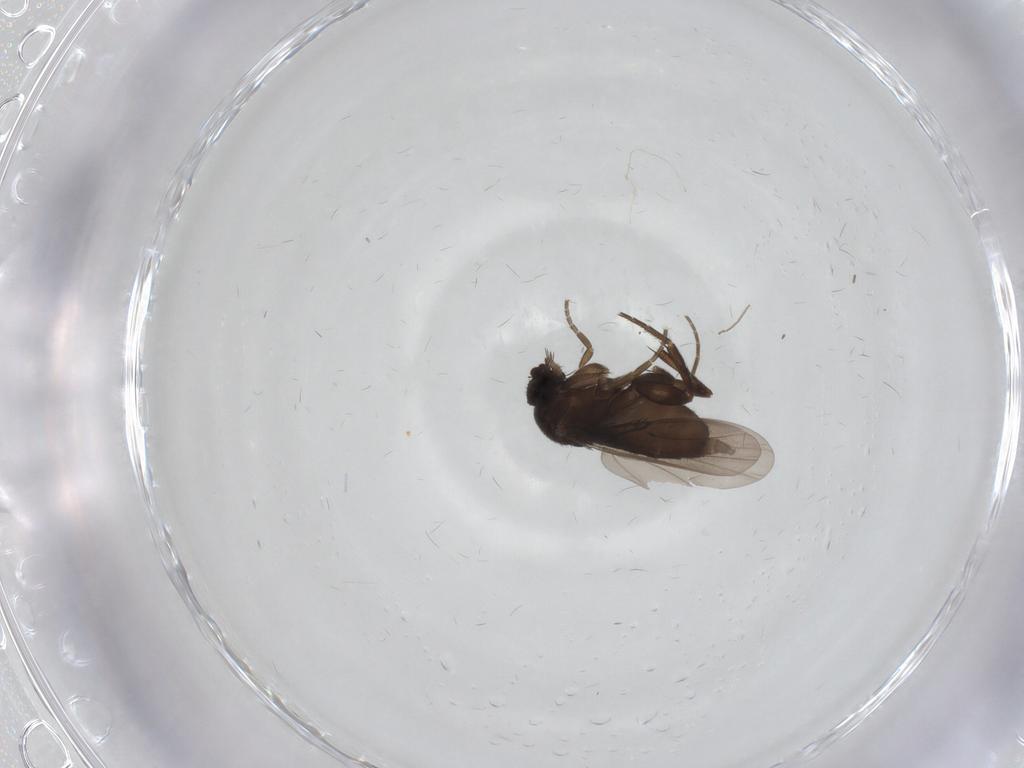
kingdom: Animalia
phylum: Arthropoda
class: Insecta
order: Diptera
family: Phoridae
